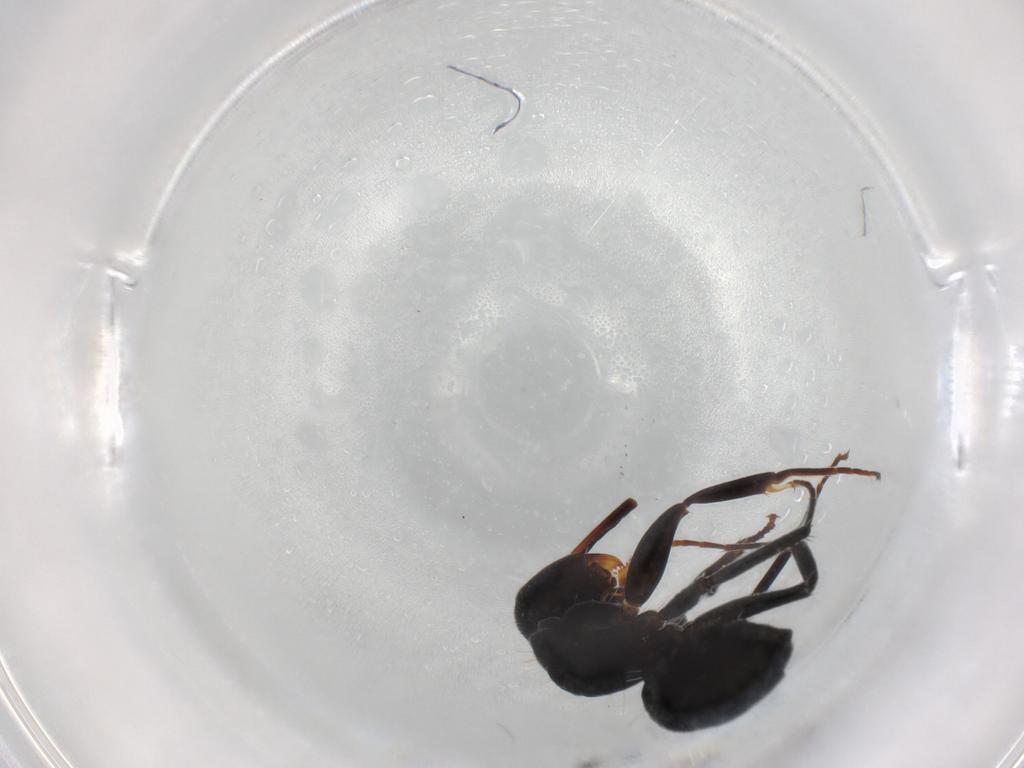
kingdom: Animalia
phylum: Arthropoda
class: Insecta
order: Hymenoptera
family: Formicidae
